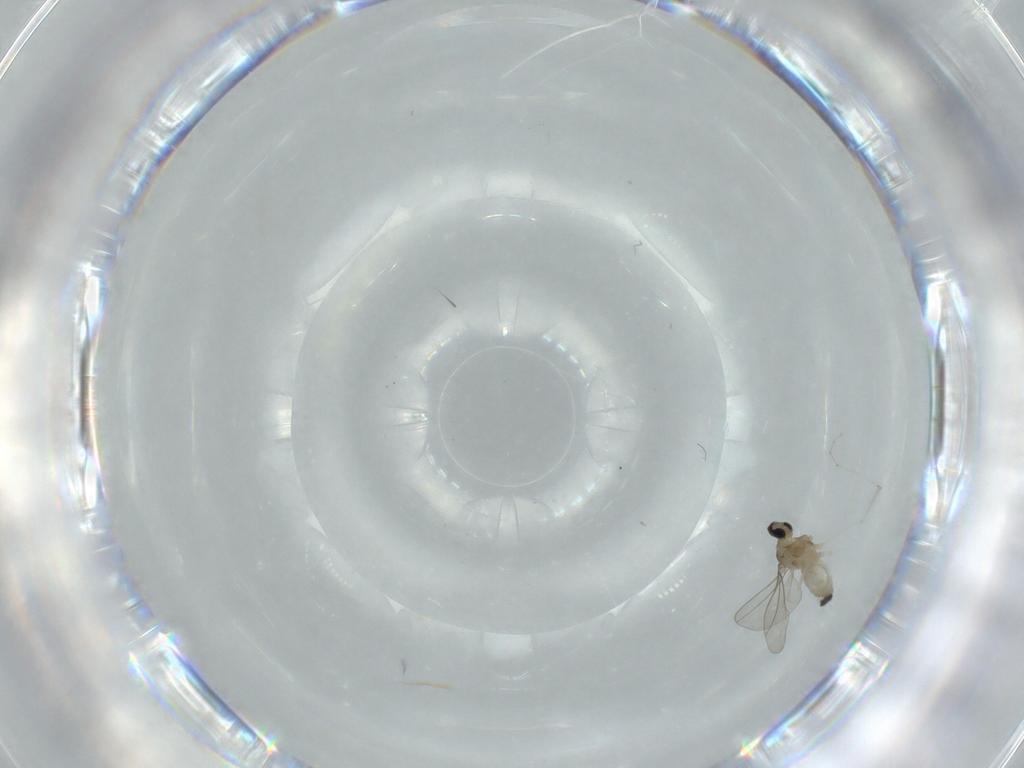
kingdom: Animalia
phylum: Arthropoda
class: Insecta
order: Diptera
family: Cecidomyiidae
